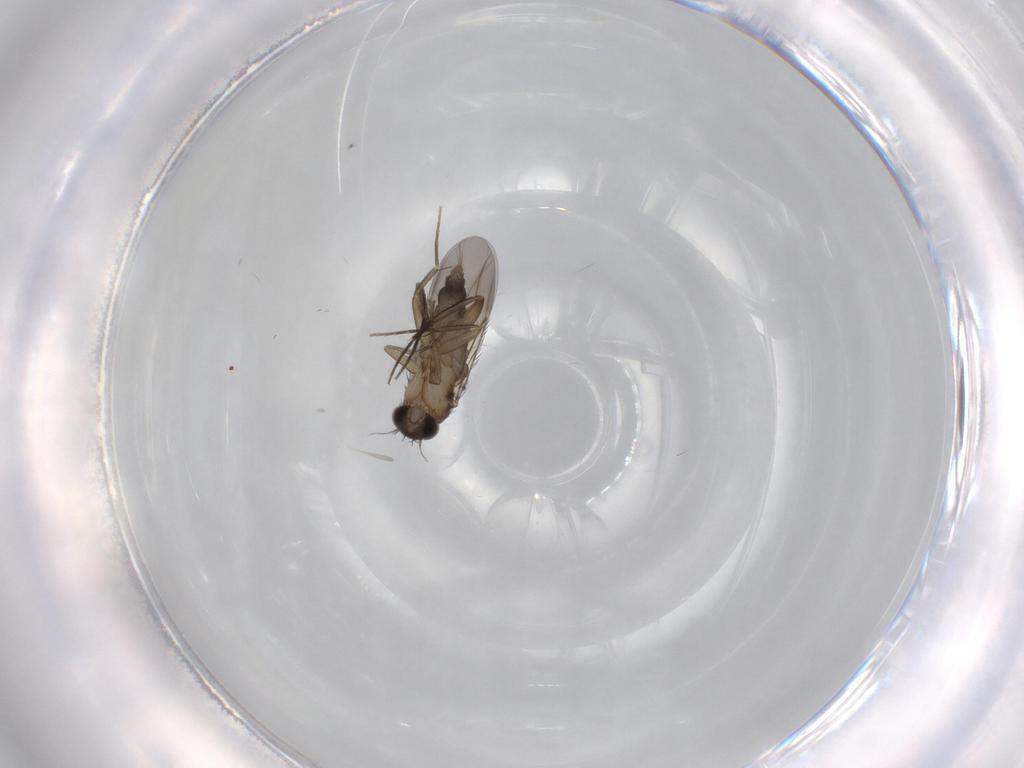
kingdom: Animalia
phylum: Arthropoda
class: Insecta
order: Diptera
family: Phoridae
